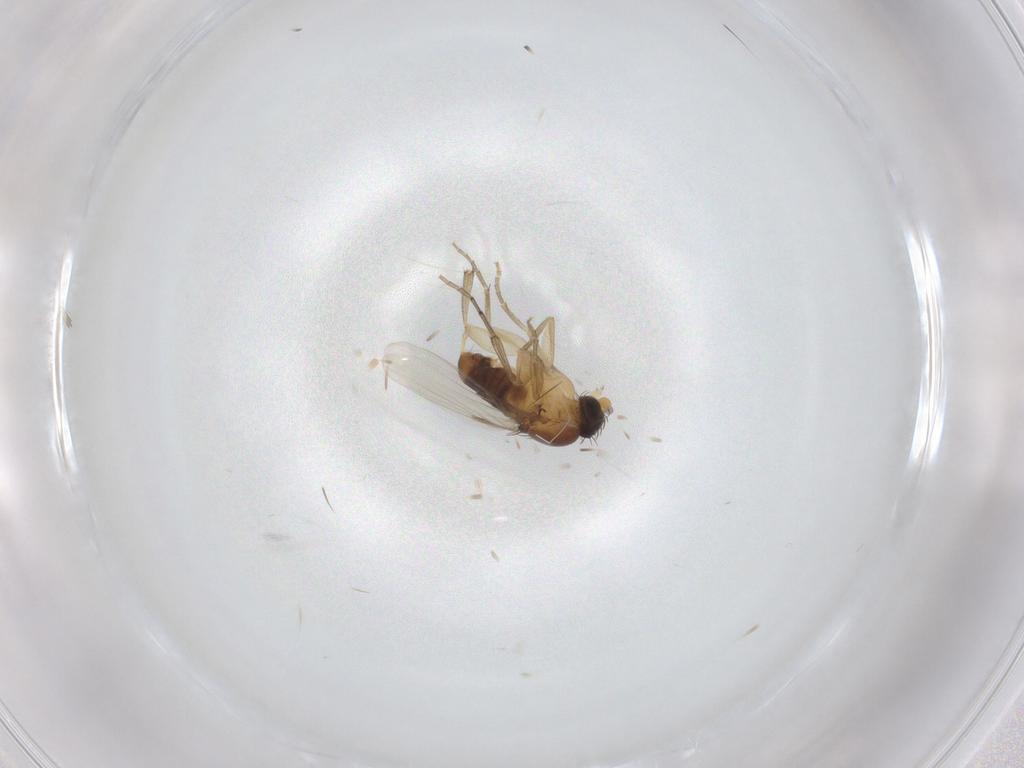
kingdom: Animalia
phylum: Arthropoda
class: Insecta
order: Diptera
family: Phoridae
